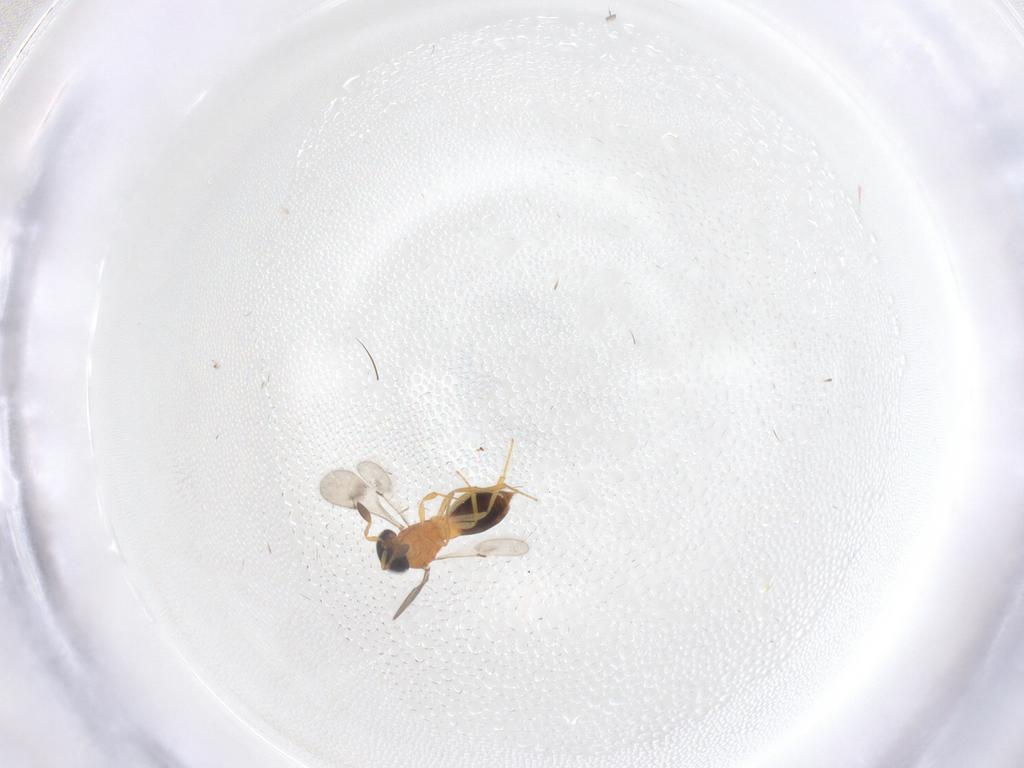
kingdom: Animalia
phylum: Arthropoda
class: Insecta
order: Hymenoptera
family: Scelionidae
